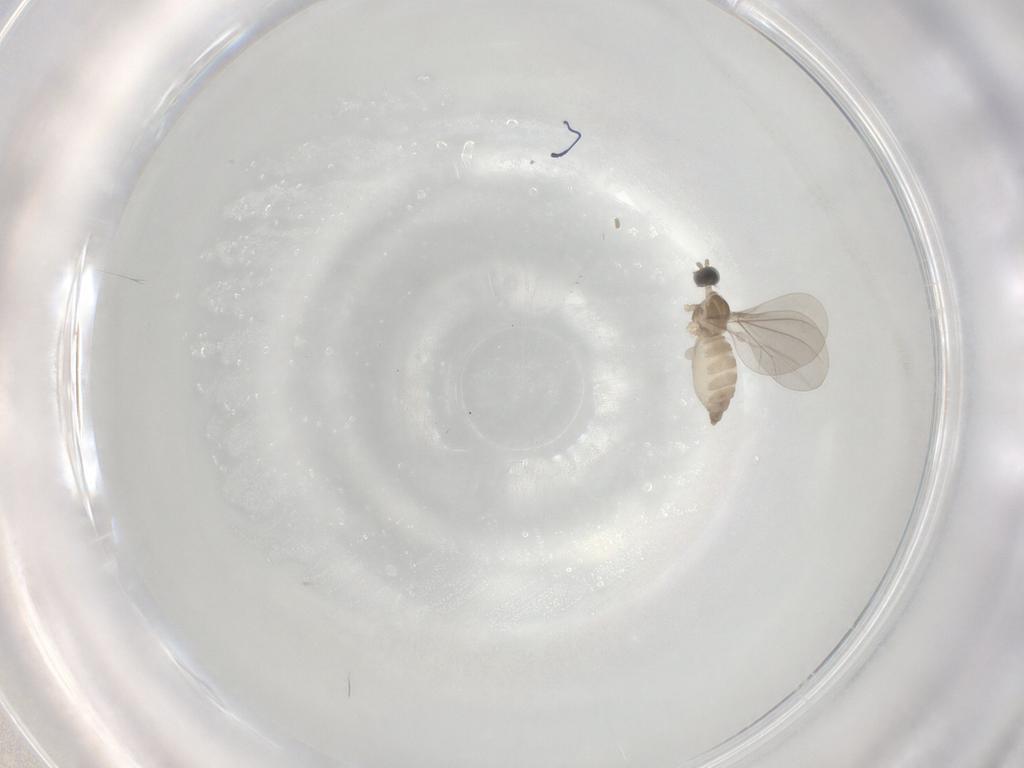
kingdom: Animalia
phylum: Arthropoda
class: Insecta
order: Diptera
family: Cecidomyiidae
